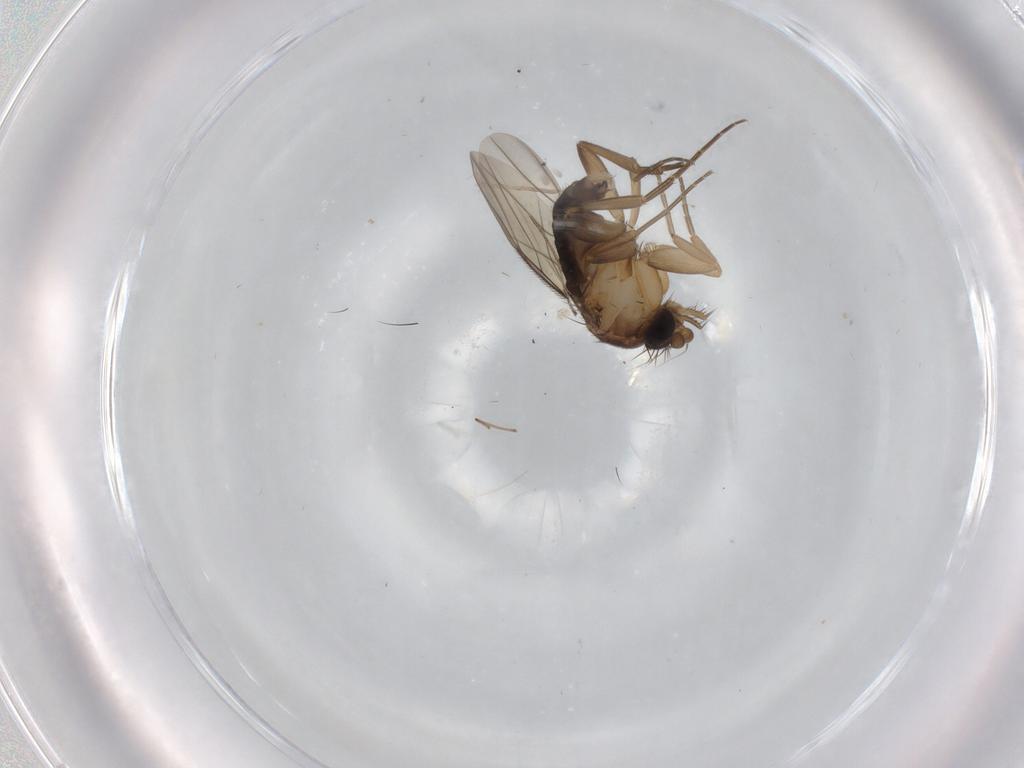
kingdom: Animalia
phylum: Arthropoda
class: Insecta
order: Diptera
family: Phoridae
